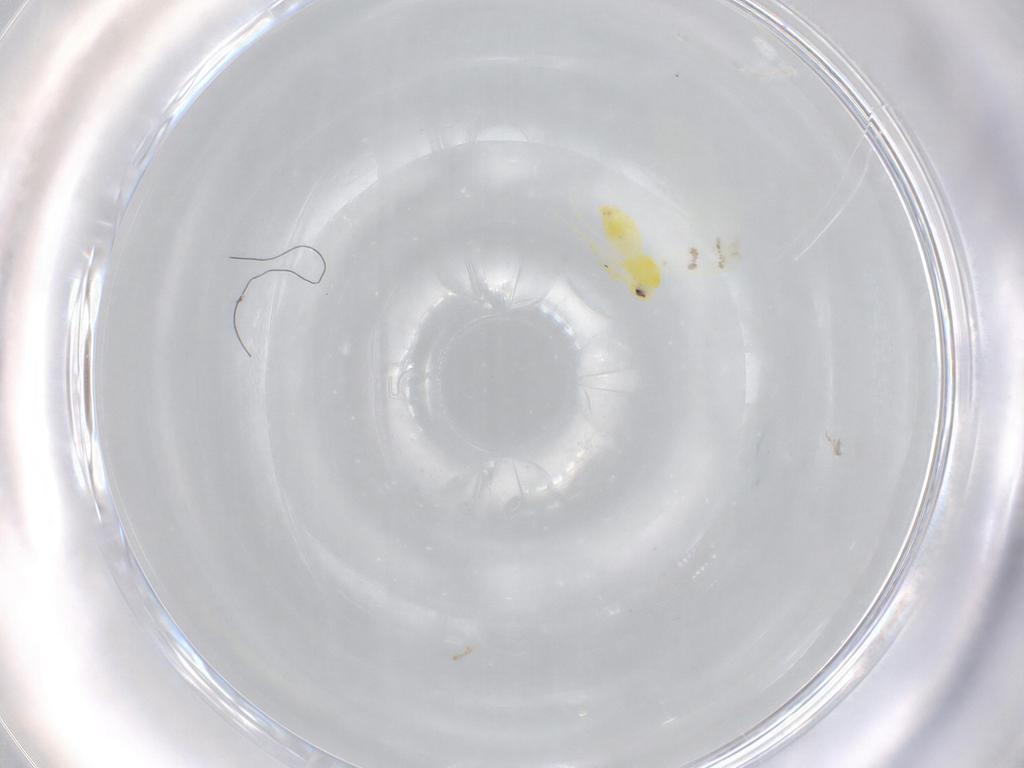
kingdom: Animalia
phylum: Arthropoda
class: Insecta
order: Hemiptera
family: Aleyrodidae
